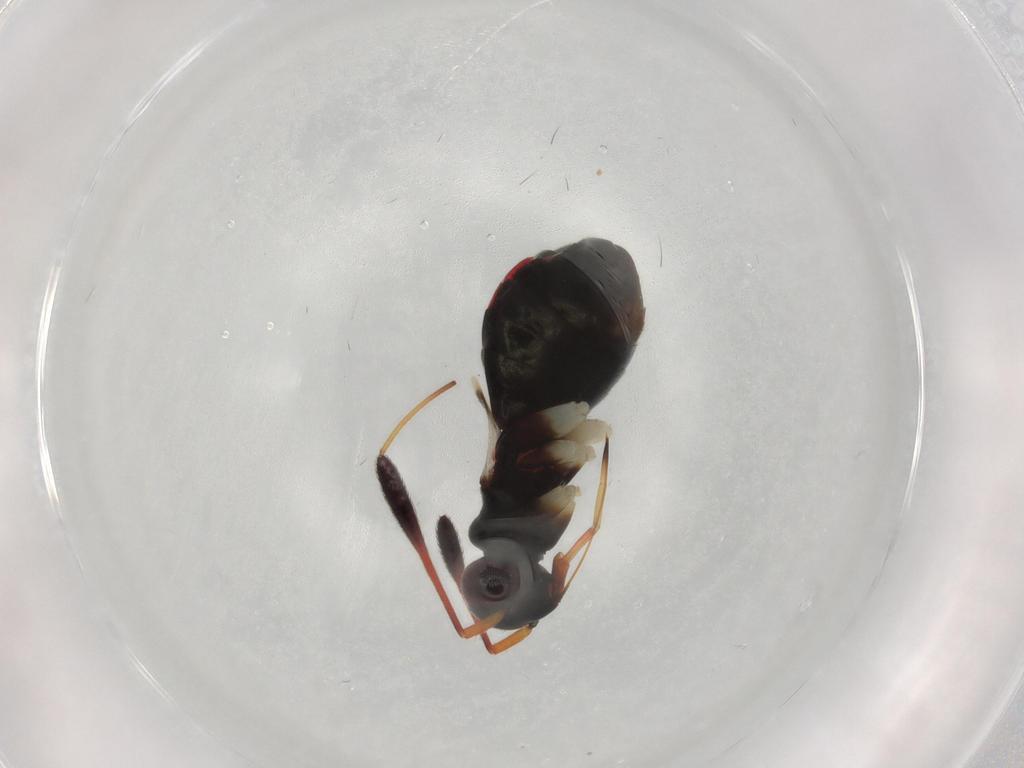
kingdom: Animalia
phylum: Arthropoda
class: Insecta
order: Hemiptera
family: Miridae
